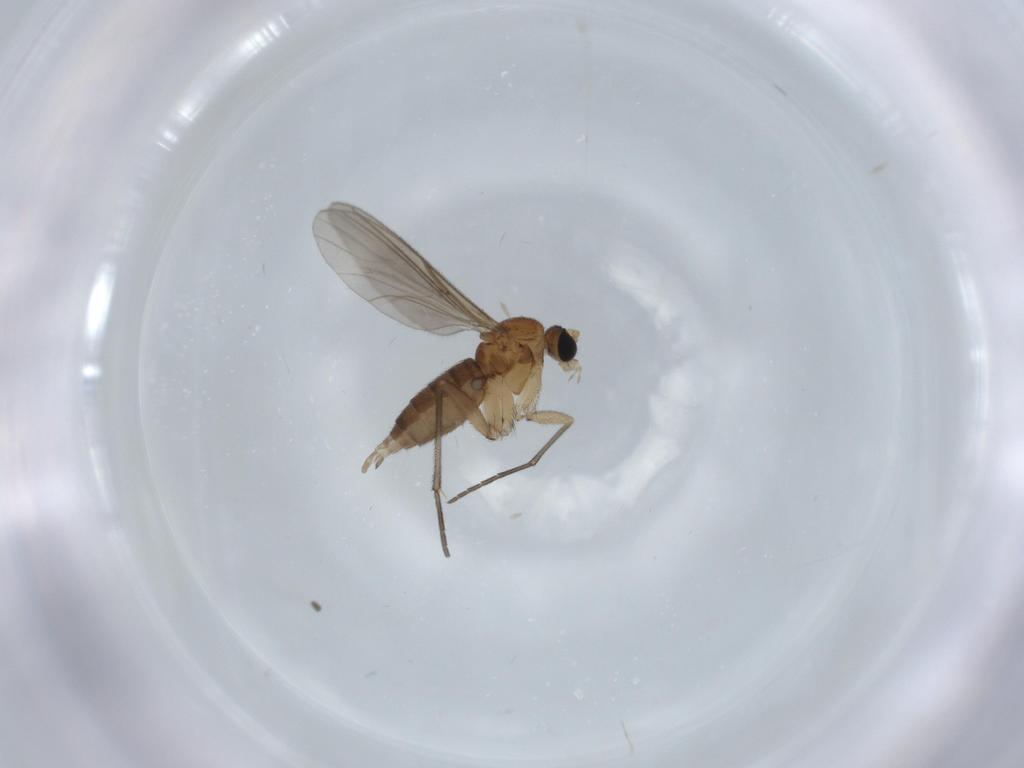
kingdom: Animalia
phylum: Arthropoda
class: Insecta
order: Diptera
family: Sciaridae
